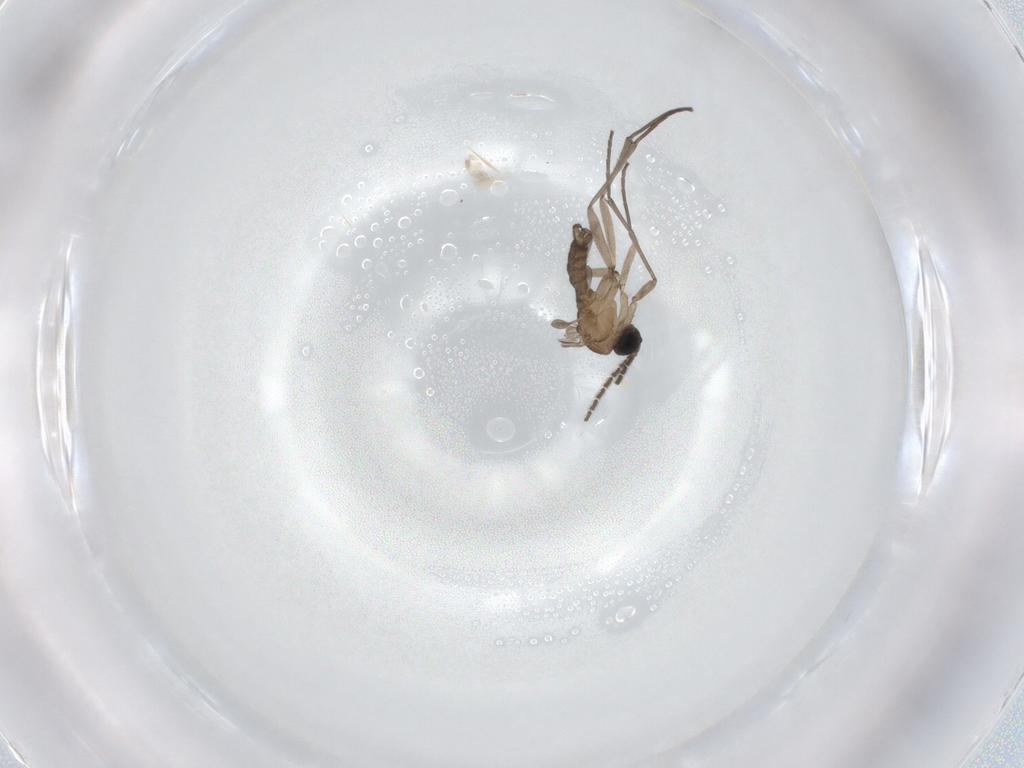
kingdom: Animalia
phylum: Arthropoda
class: Insecta
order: Diptera
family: Sciaridae
